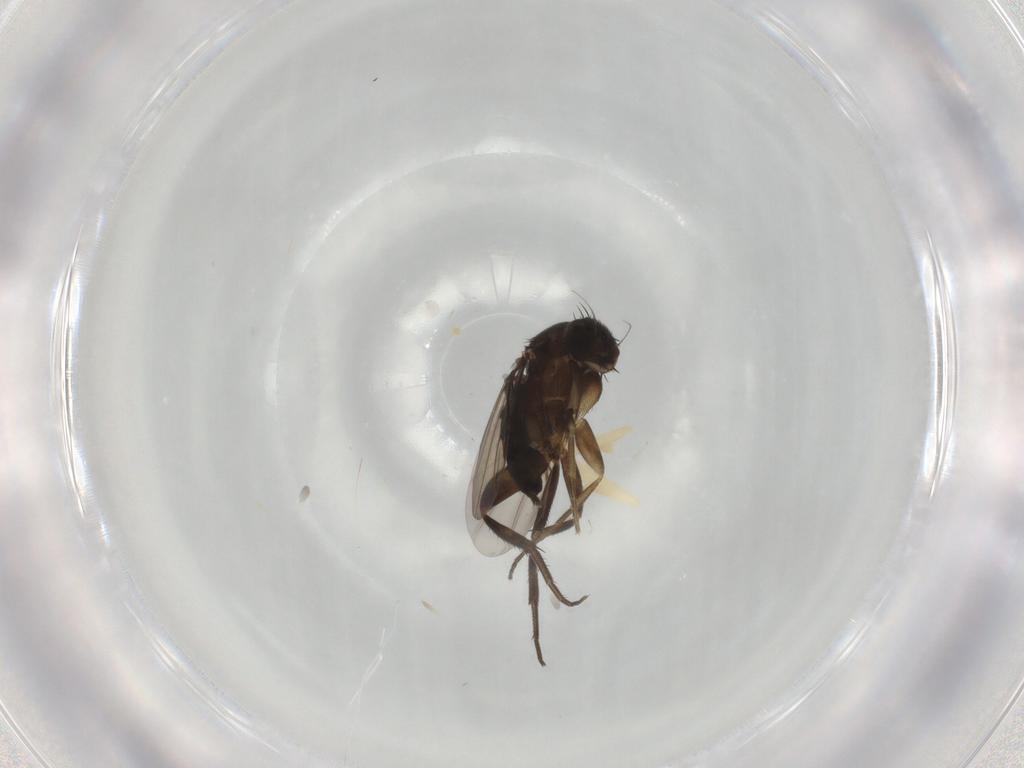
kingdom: Animalia
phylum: Arthropoda
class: Insecta
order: Diptera
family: Phoridae
